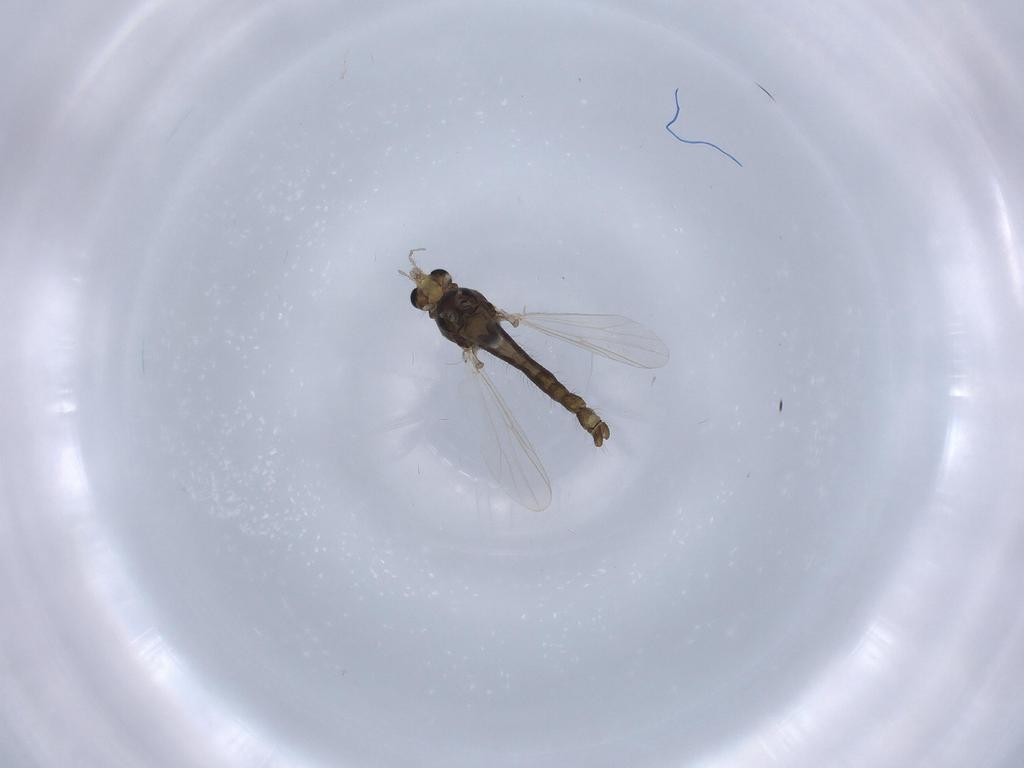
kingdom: Animalia
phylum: Arthropoda
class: Insecta
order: Diptera
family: Chironomidae
